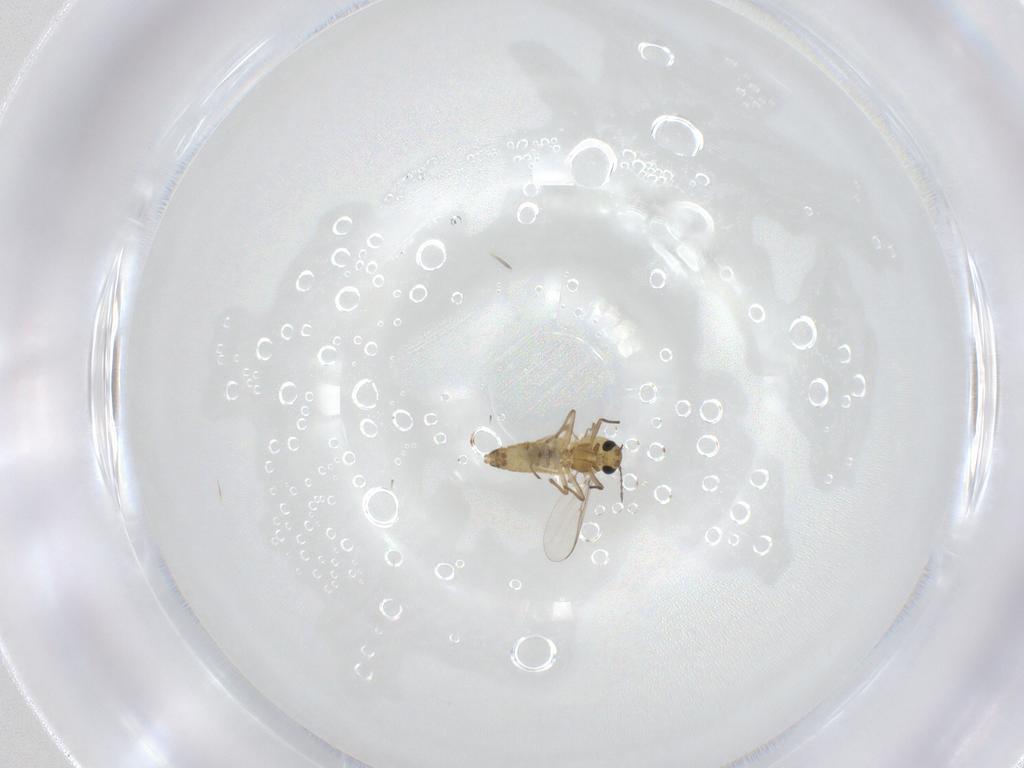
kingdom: Animalia
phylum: Arthropoda
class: Insecta
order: Diptera
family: Chironomidae
